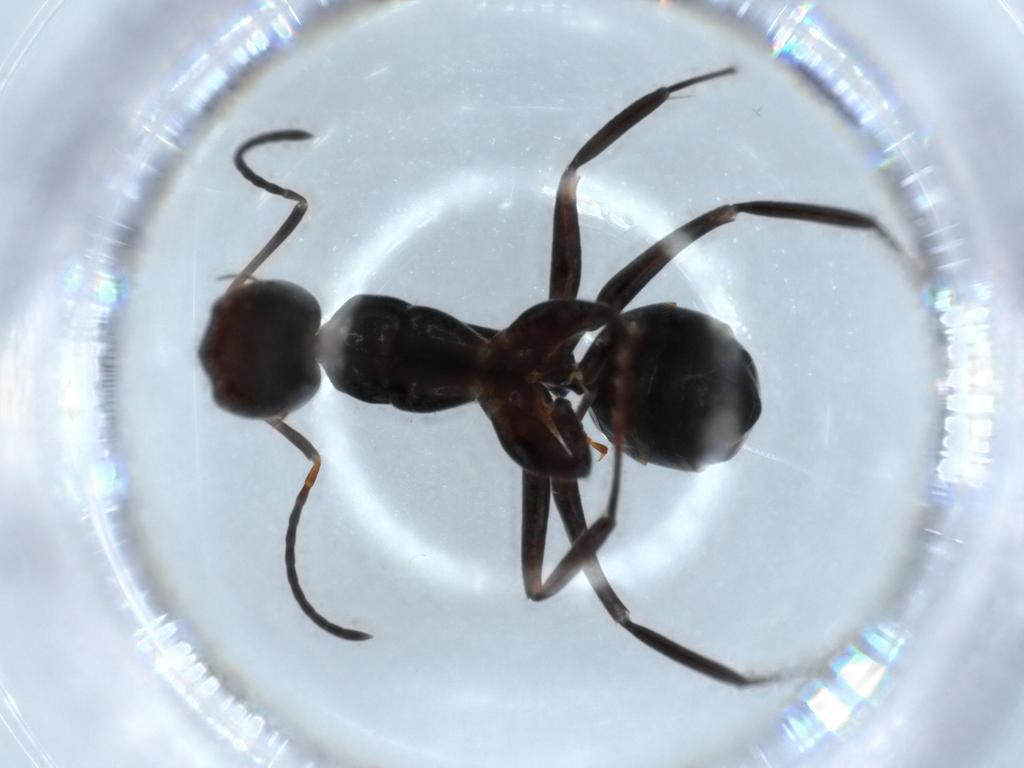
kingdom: Animalia
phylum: Arthropoda
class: Insecta
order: Hymenoptera
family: Formicidae
